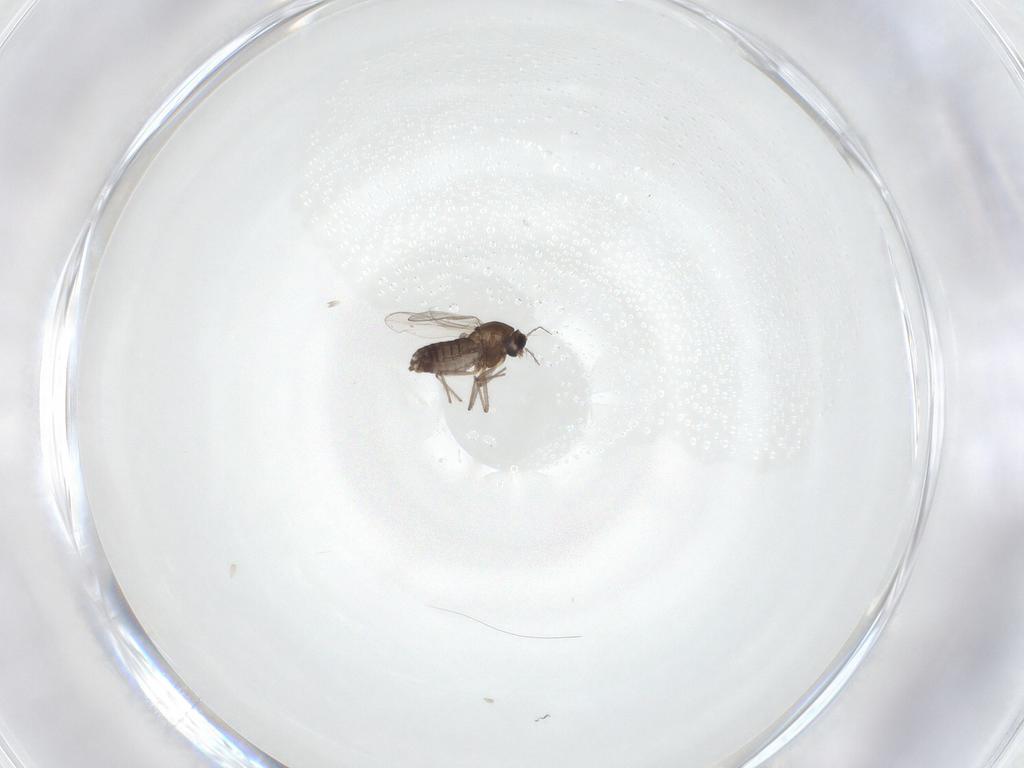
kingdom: Animalia
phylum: Arthropoda
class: Insecta
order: Diptera
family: Chironomidae
